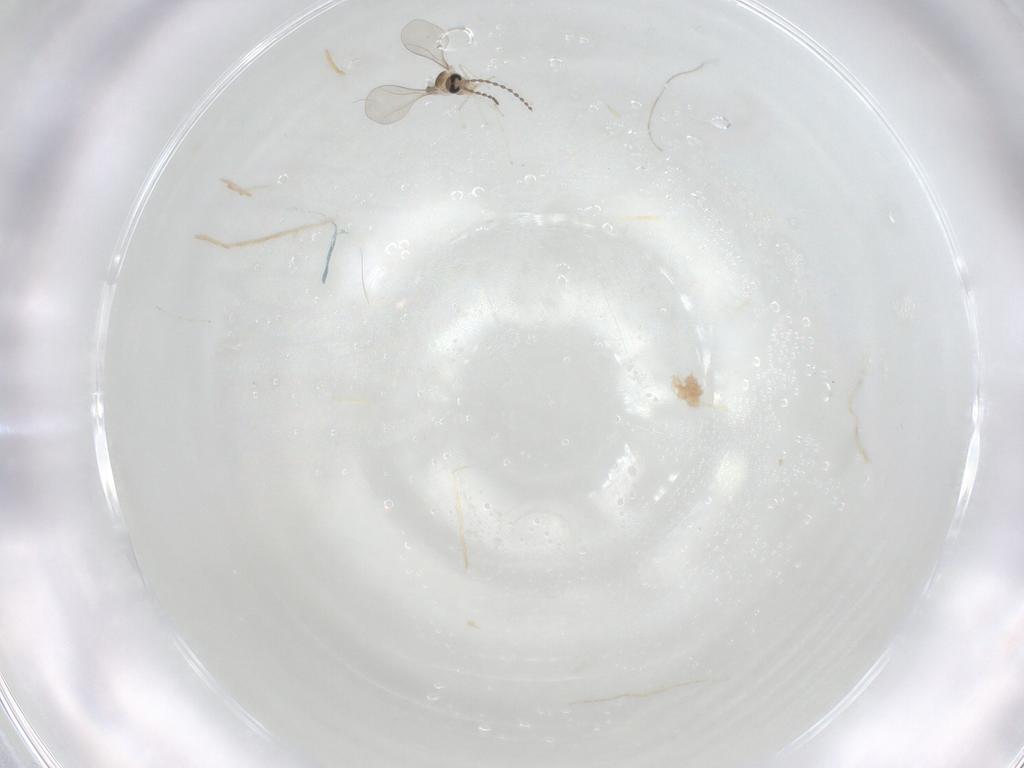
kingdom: Animalia
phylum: Arthropoda
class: Insecta
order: Diptera
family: Cecidomyiidae
